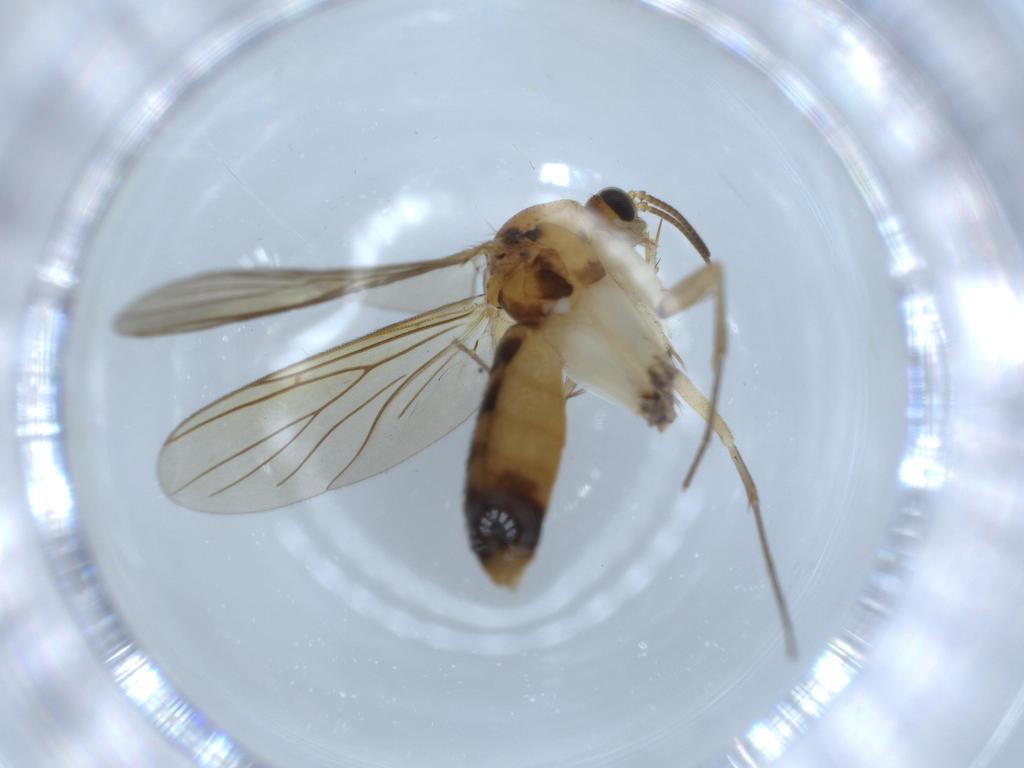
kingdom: Animalia
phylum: Arthropoda
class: Insecta
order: Diptera
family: Mycetophilidae
